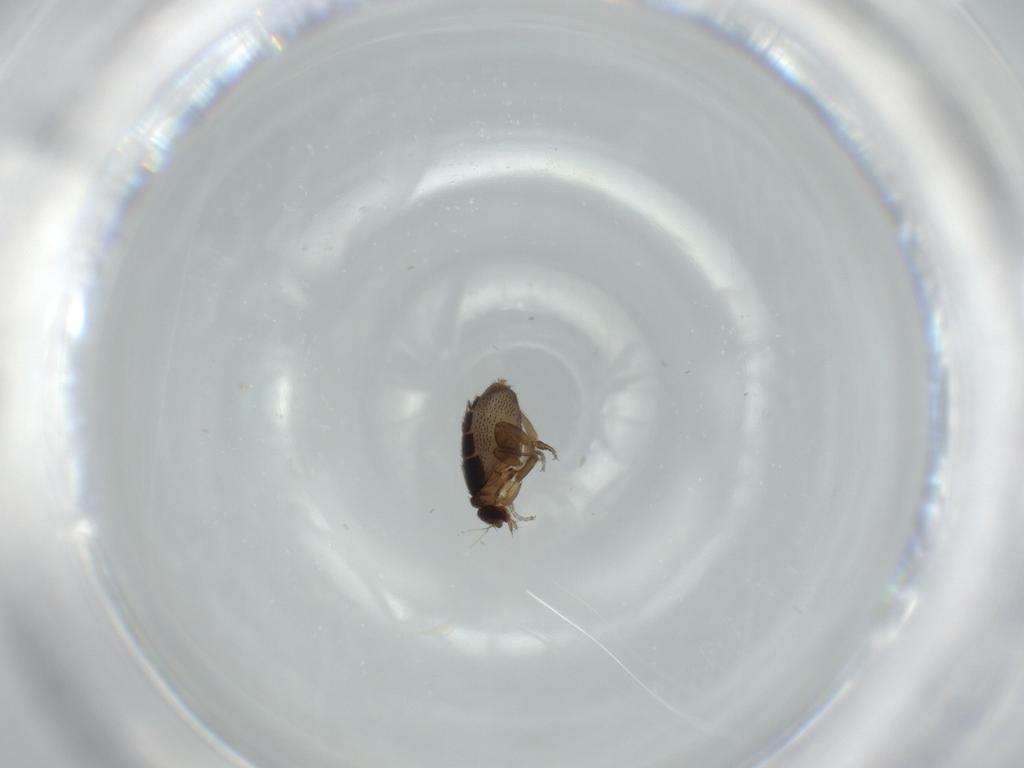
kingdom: Animalia
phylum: Arthropoda
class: Insecta
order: Diptera
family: Phoridae
